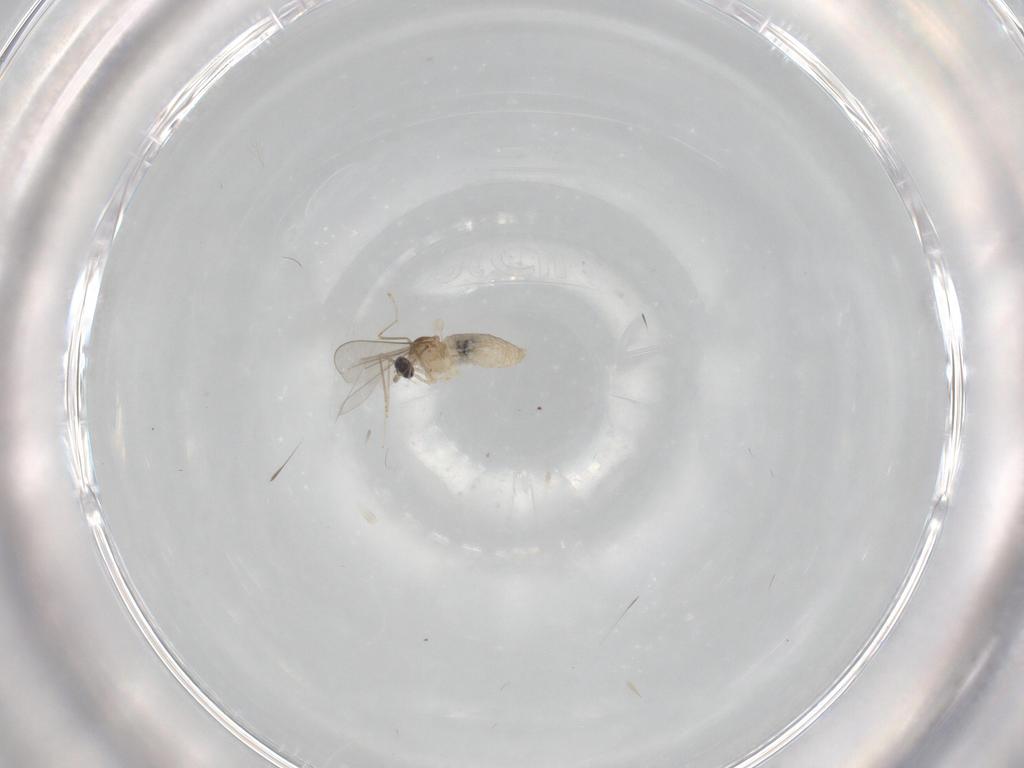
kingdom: Animalia
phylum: Arthropoda
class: Insecta
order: Diptera
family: Cecidomyiidae
